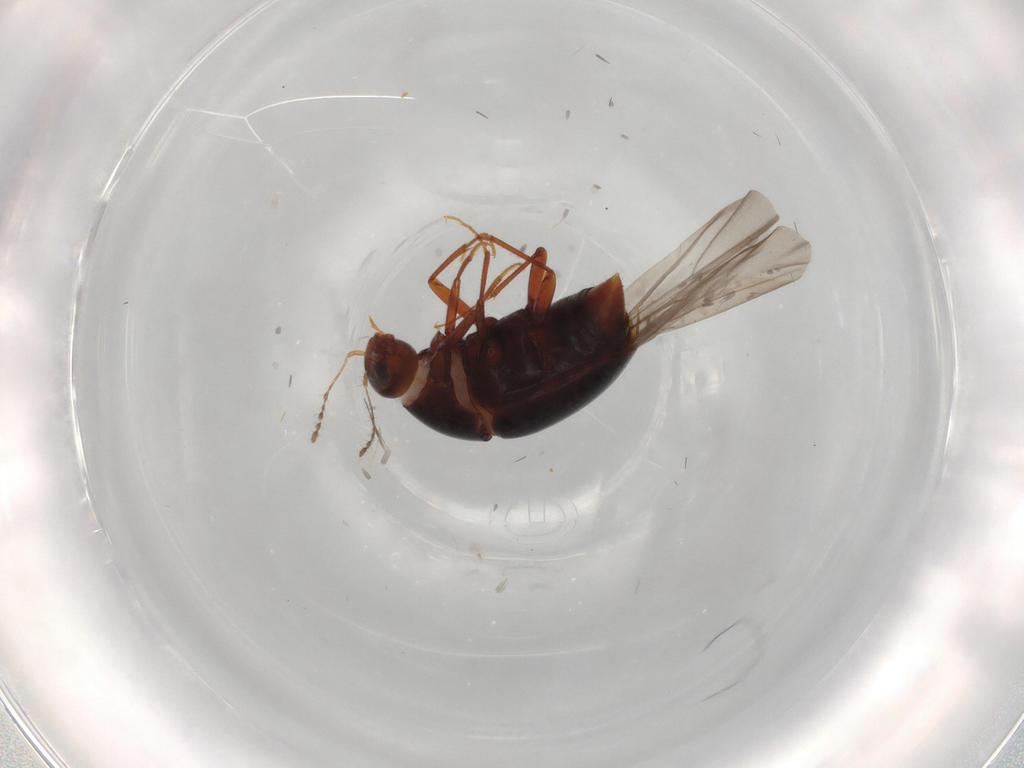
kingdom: Animalia
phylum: Arthropoda
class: Insecta
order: Coleoptera
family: Staphylinidae
